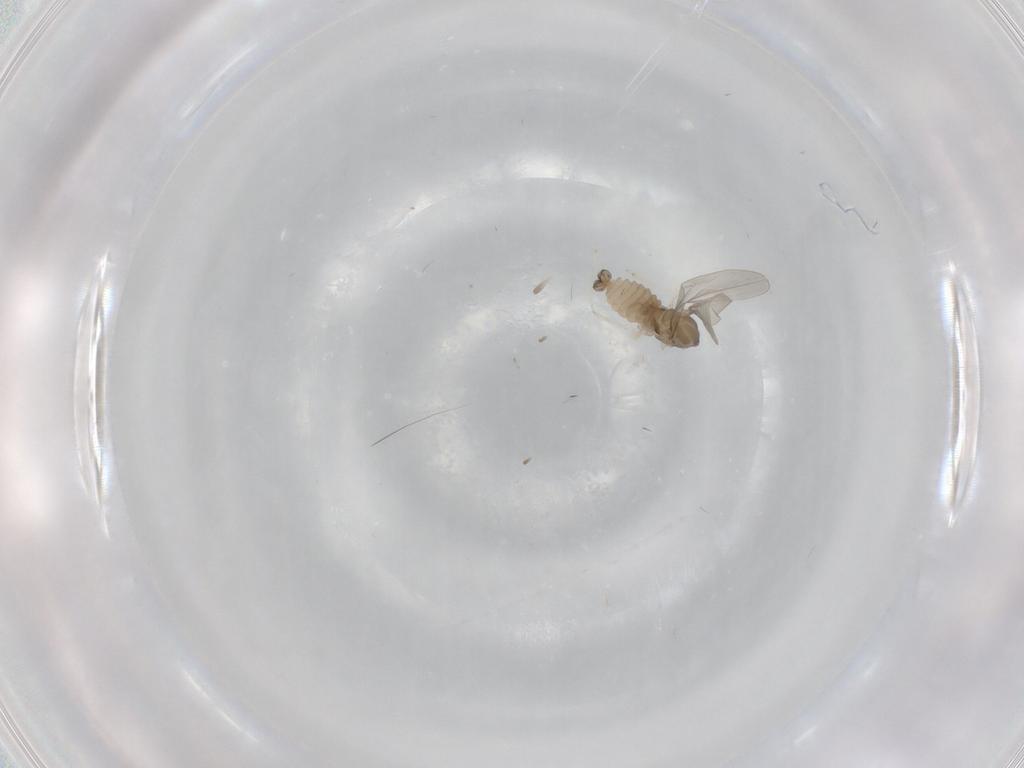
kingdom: Animalia
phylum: Arthropoda
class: Insecta
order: Diptera
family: Cecidomyiidae
